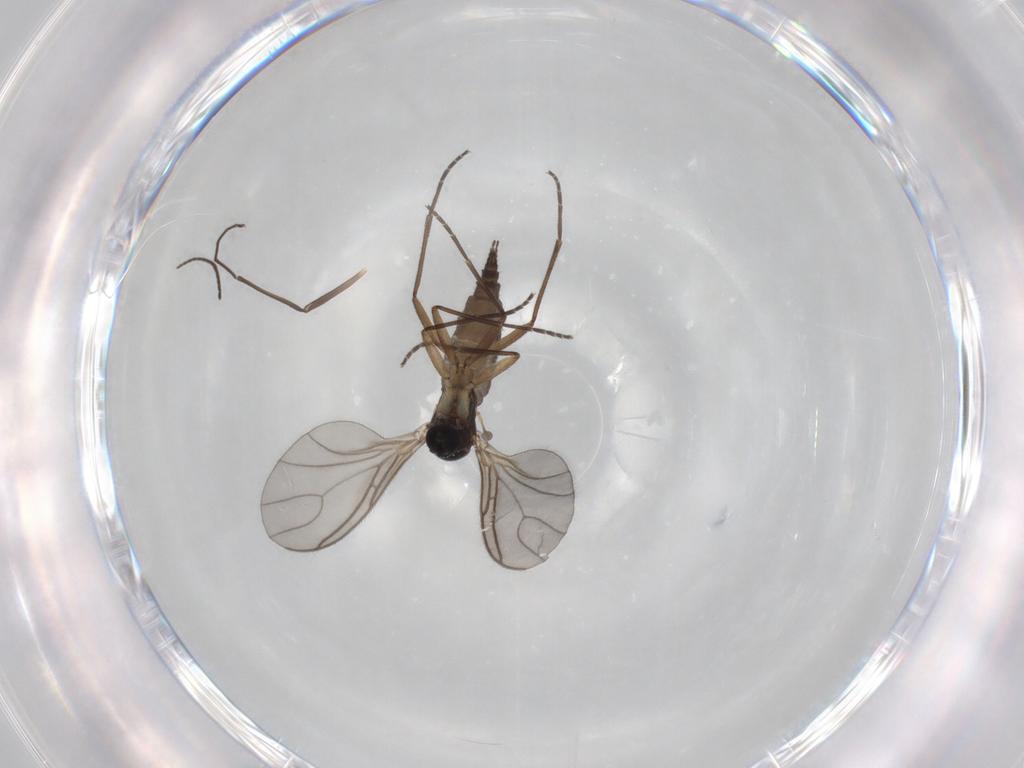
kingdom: Animalia
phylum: Arthropoda
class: Insecta
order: Diptera
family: Sciaridae
